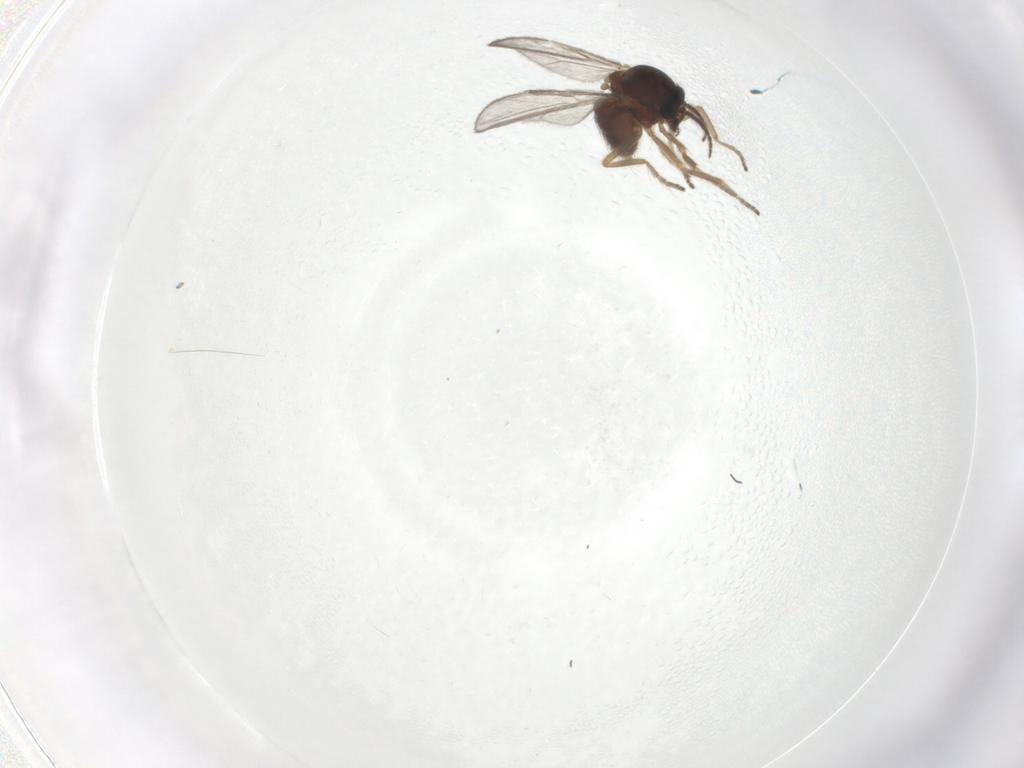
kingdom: Animalia
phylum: Arthropoda
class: Insecta
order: Diptera
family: Ceratopogonidae
